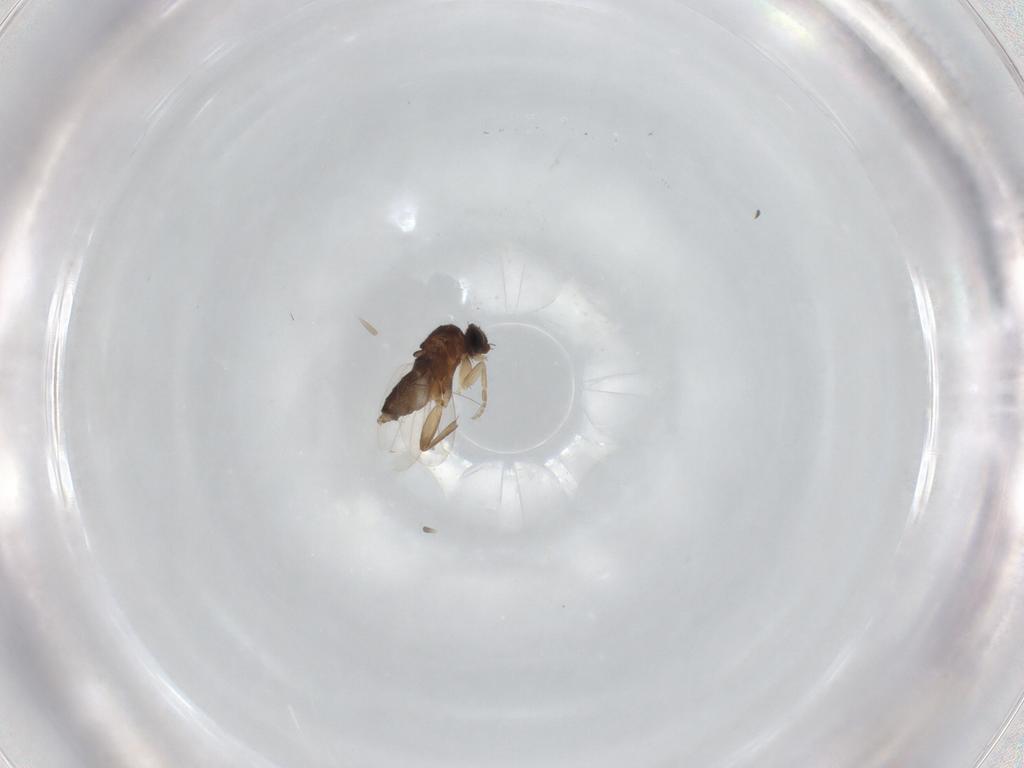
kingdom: Animalia
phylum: Arthropoda
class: Insecta
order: Diptera
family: Phoridae
